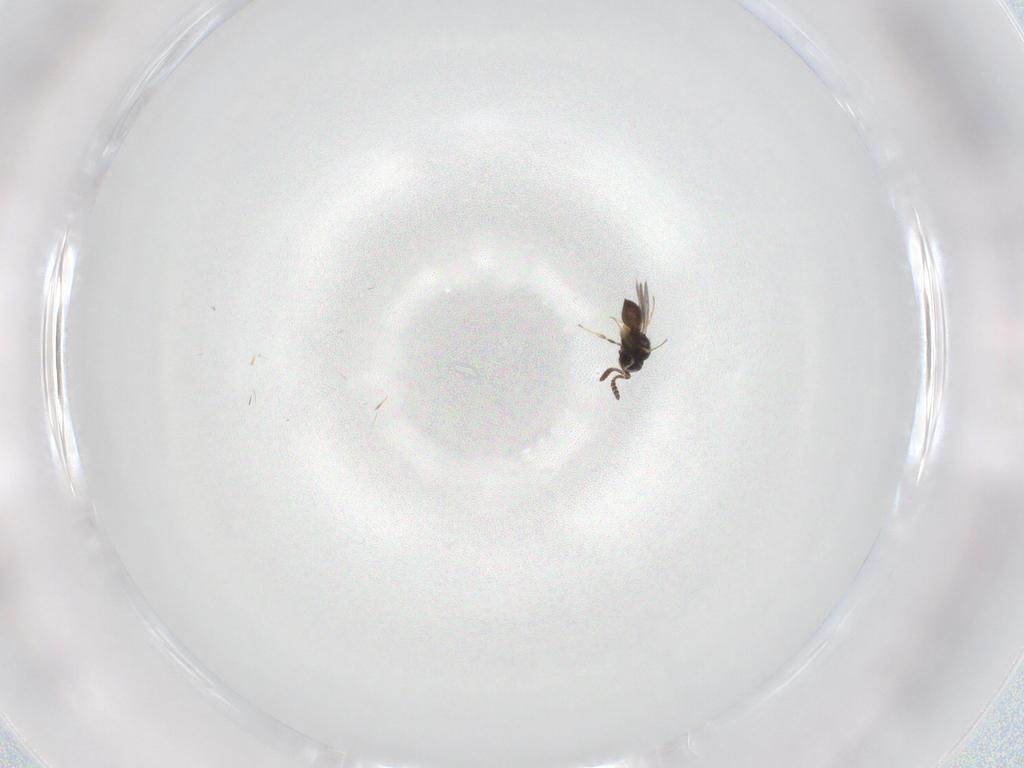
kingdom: Animalia
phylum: Arthropoda
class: Insecta
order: Hymenoptera
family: Scelionidae
